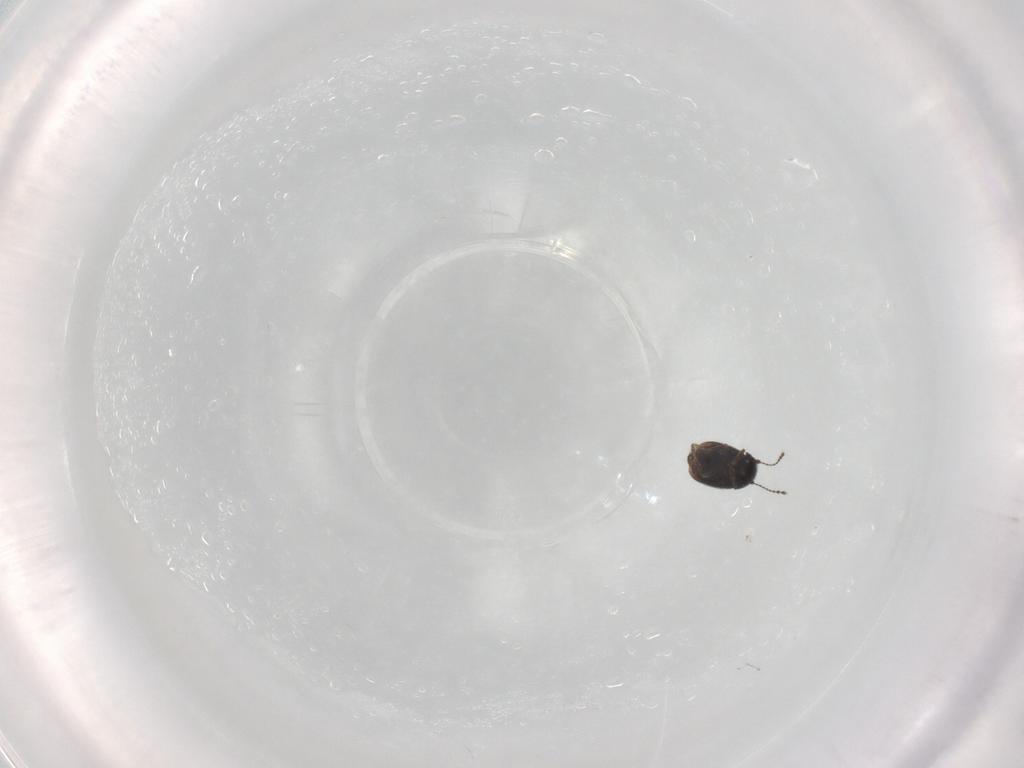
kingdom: Animalia
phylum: Arthropoda
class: Insecta
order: Coleoptera
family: Ptiliidae
